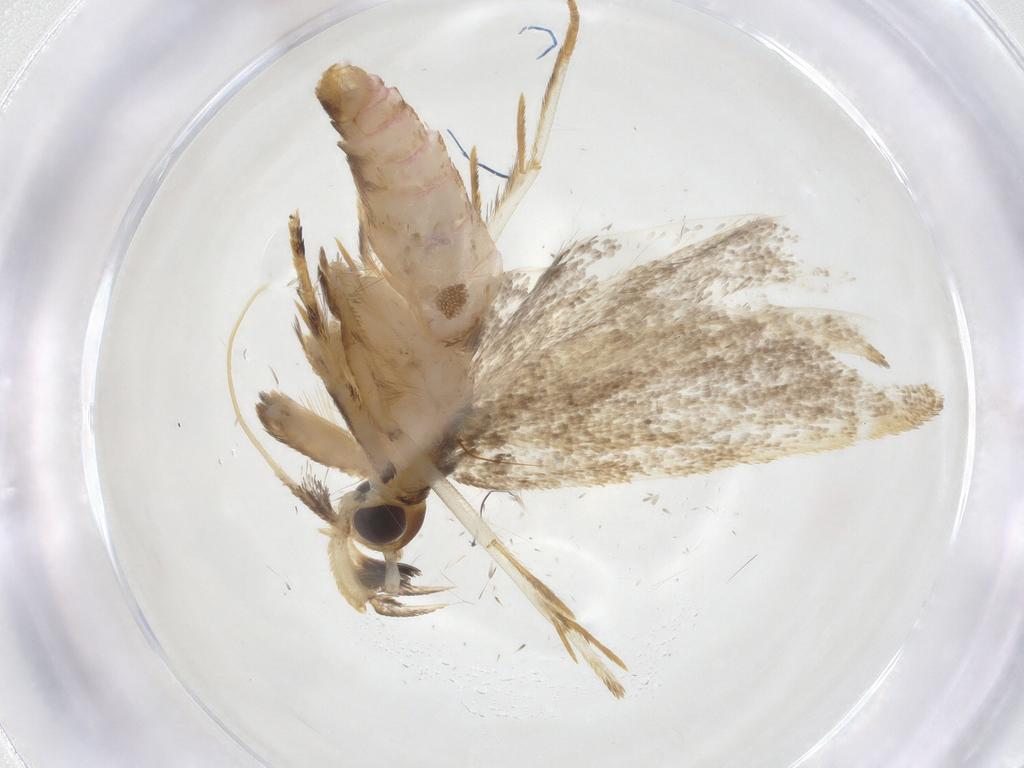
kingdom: Animalia
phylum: Arthropoda
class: Insecta
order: Lepidoptera
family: Lecithoceridae
